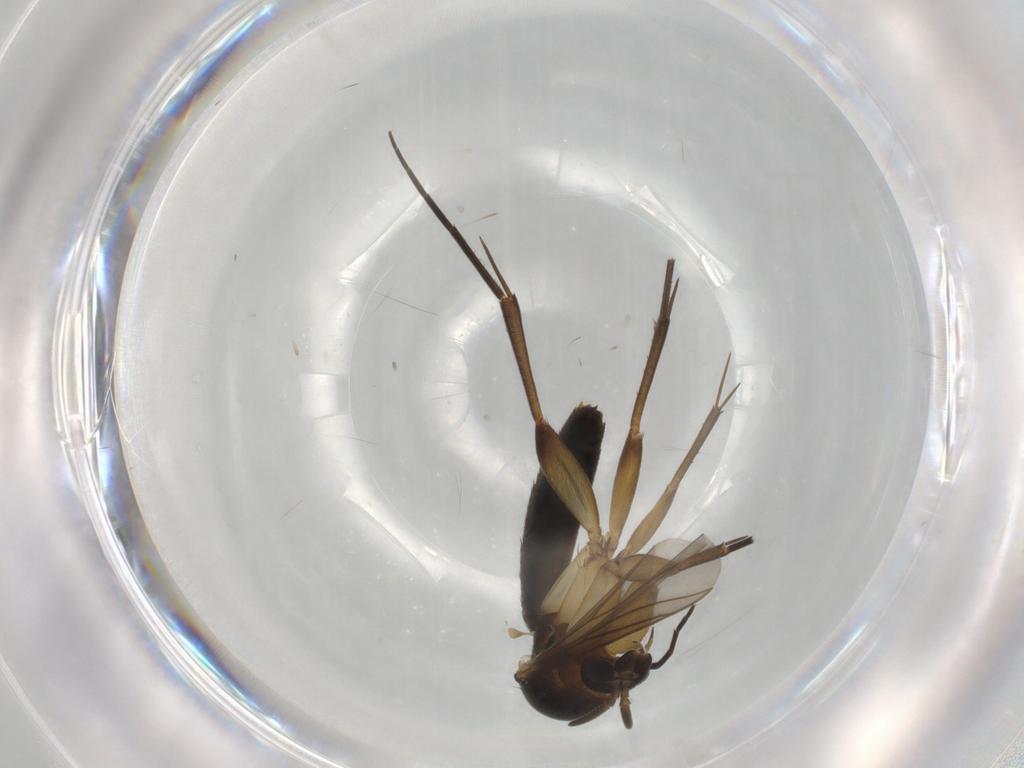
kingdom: Animalia
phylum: Arthropoda
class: Insecta
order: Diptera
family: Mycetophilidae
